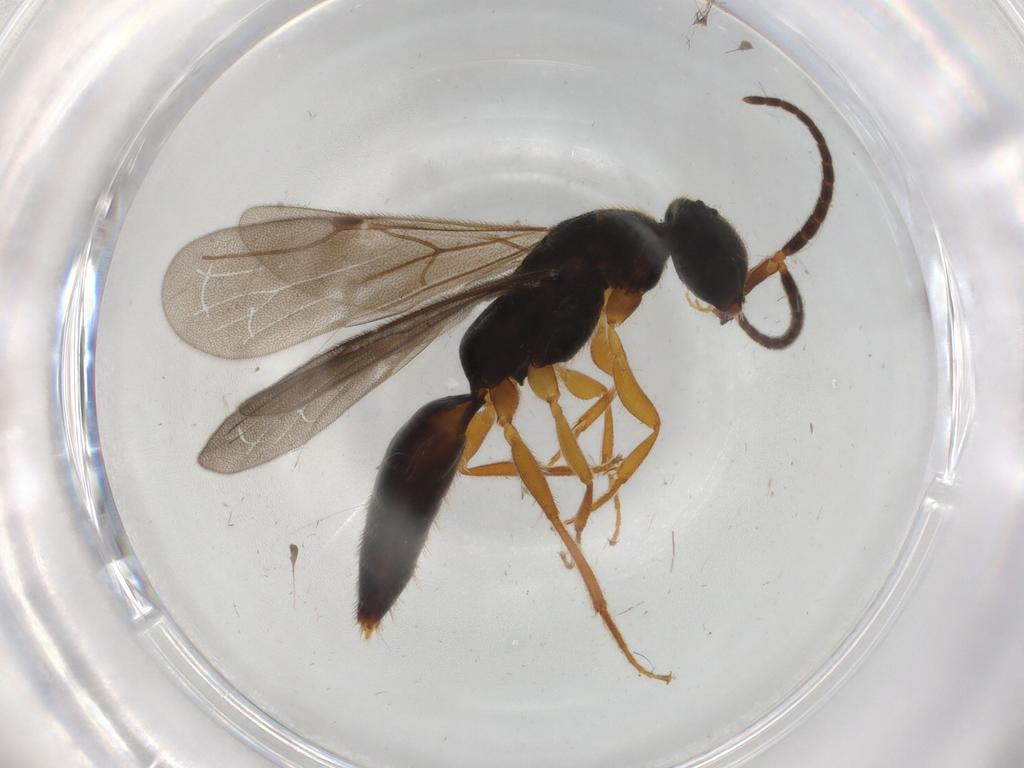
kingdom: Animalia
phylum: Arthropoda
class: Insecta
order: Hymenoptera
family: Bethylidae
